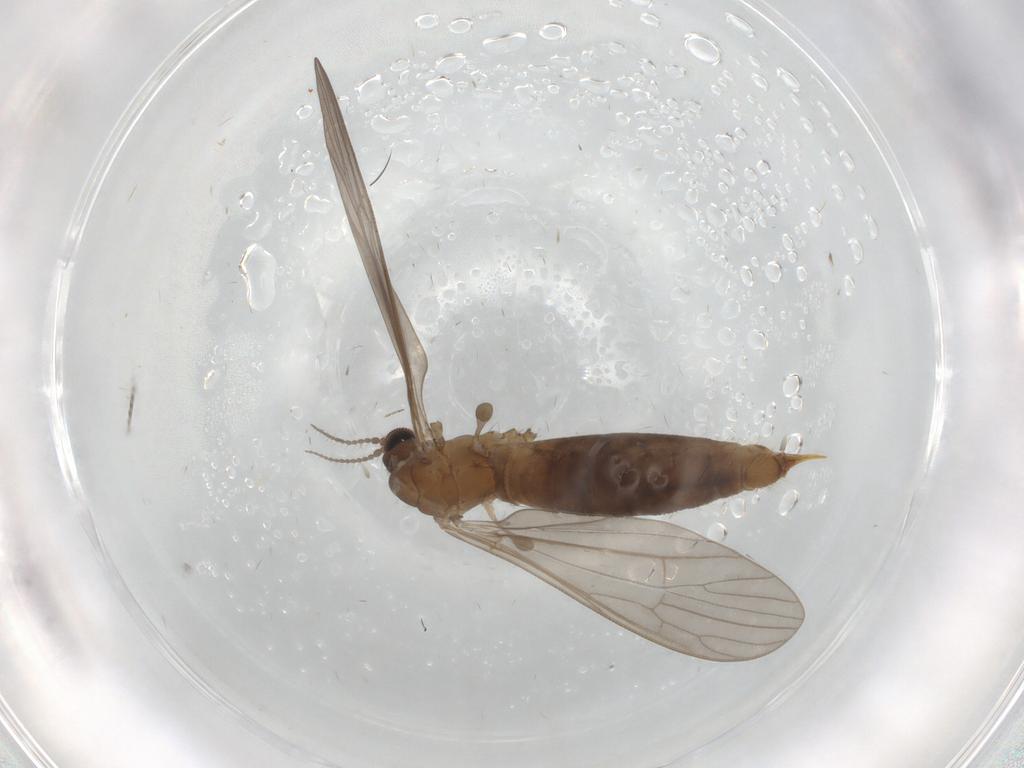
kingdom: Animalia
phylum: Arthropoda
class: Insecta
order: Diptera
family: Limoniidae
